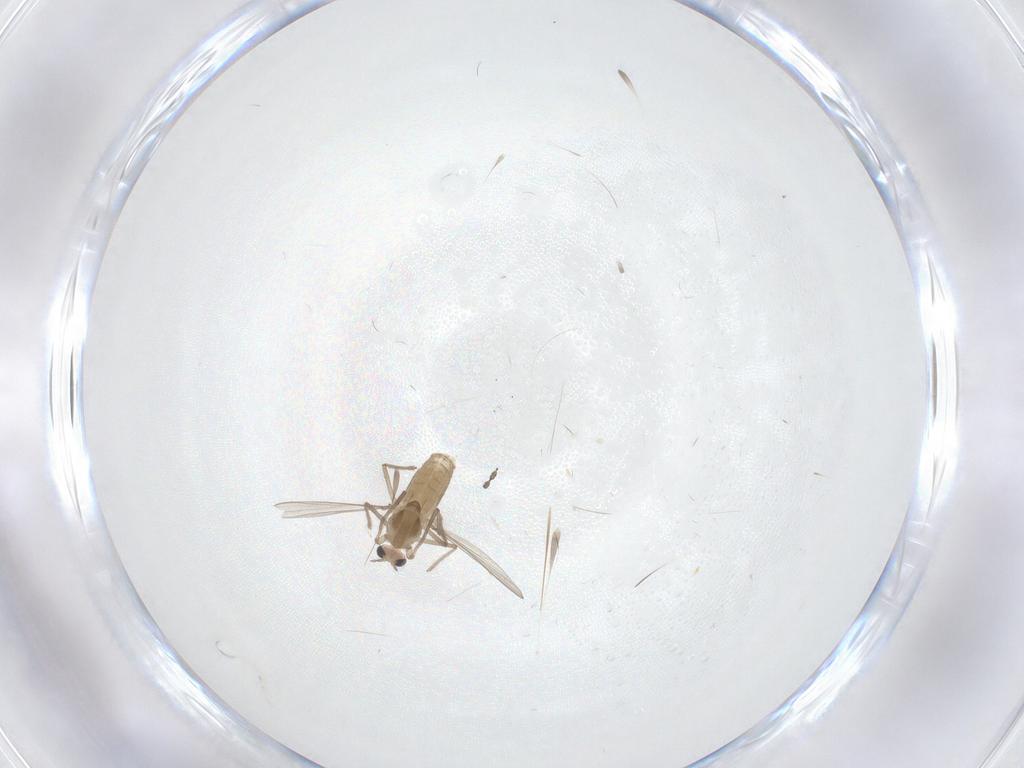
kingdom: Animalia
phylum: Arthropoda
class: Insecta
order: Diptera
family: Chironomidae
